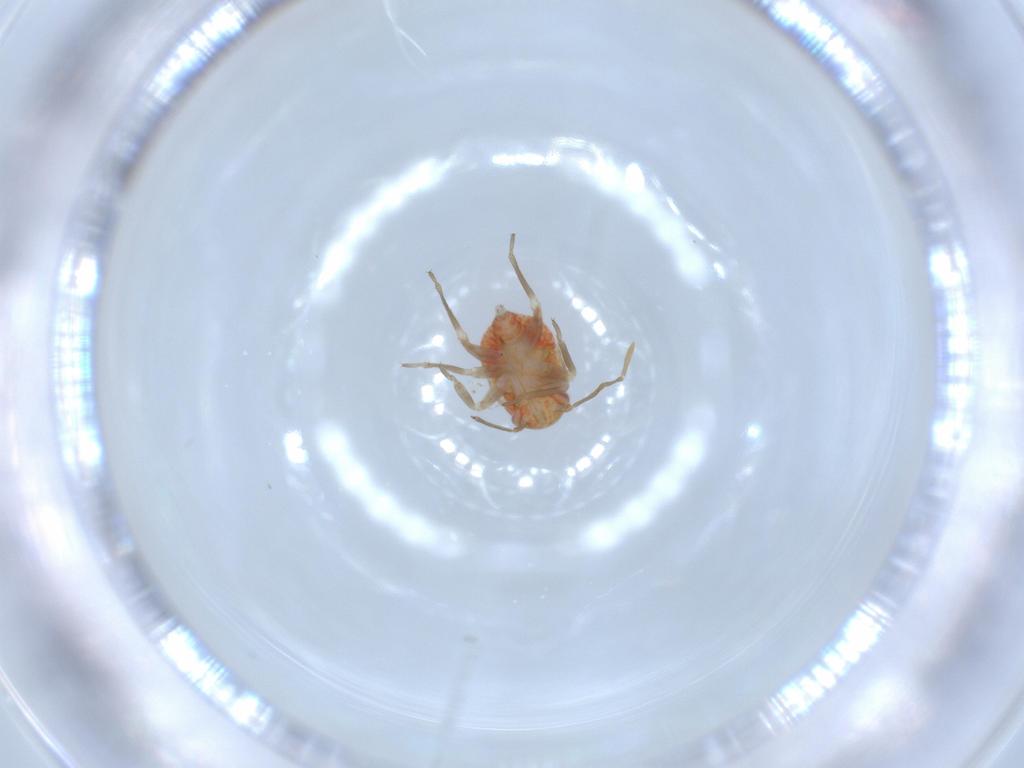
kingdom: Animalia
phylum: Arthropoda
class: Insecta
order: Hemiptera
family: Miridae
